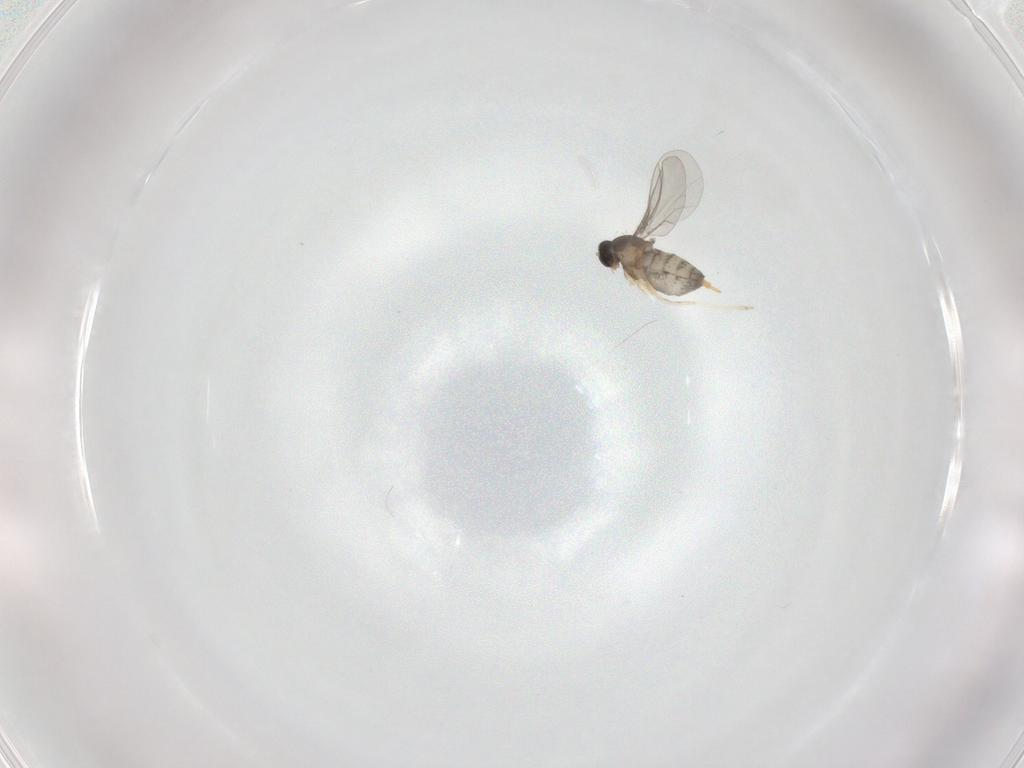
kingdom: Animalia
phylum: Arthropoda
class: Insecta
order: Diptera
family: Cecidomyiidae
